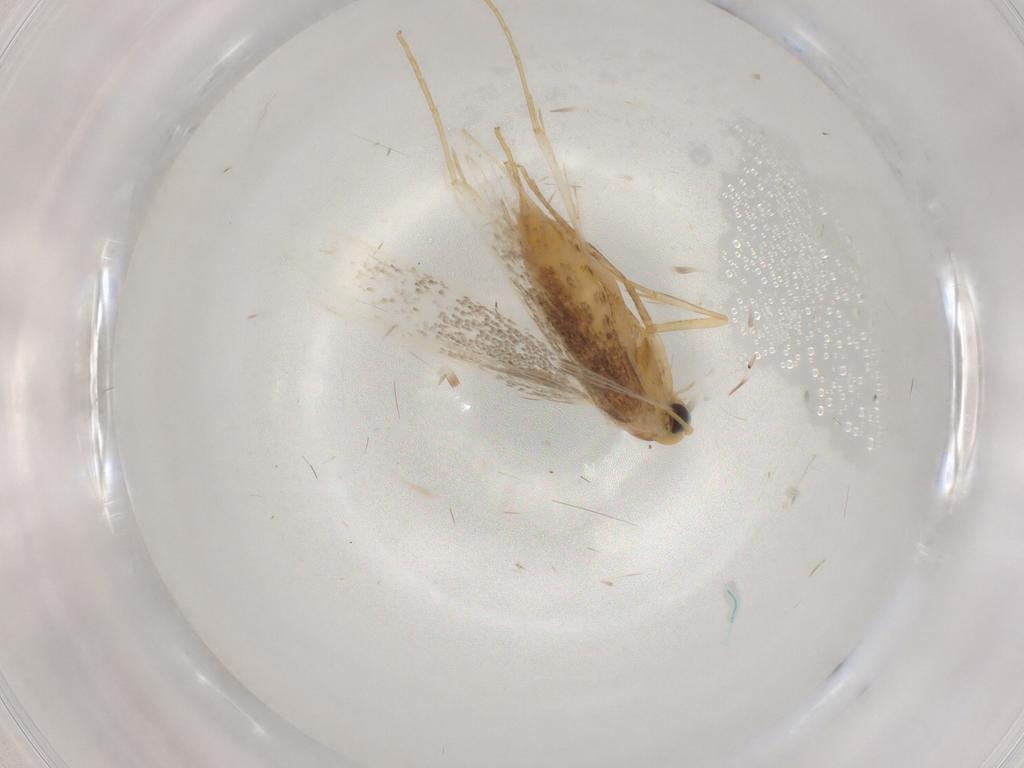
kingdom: Animalia
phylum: Arthropoda
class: Insecta
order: Lepidoptera
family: Gracillariidae
